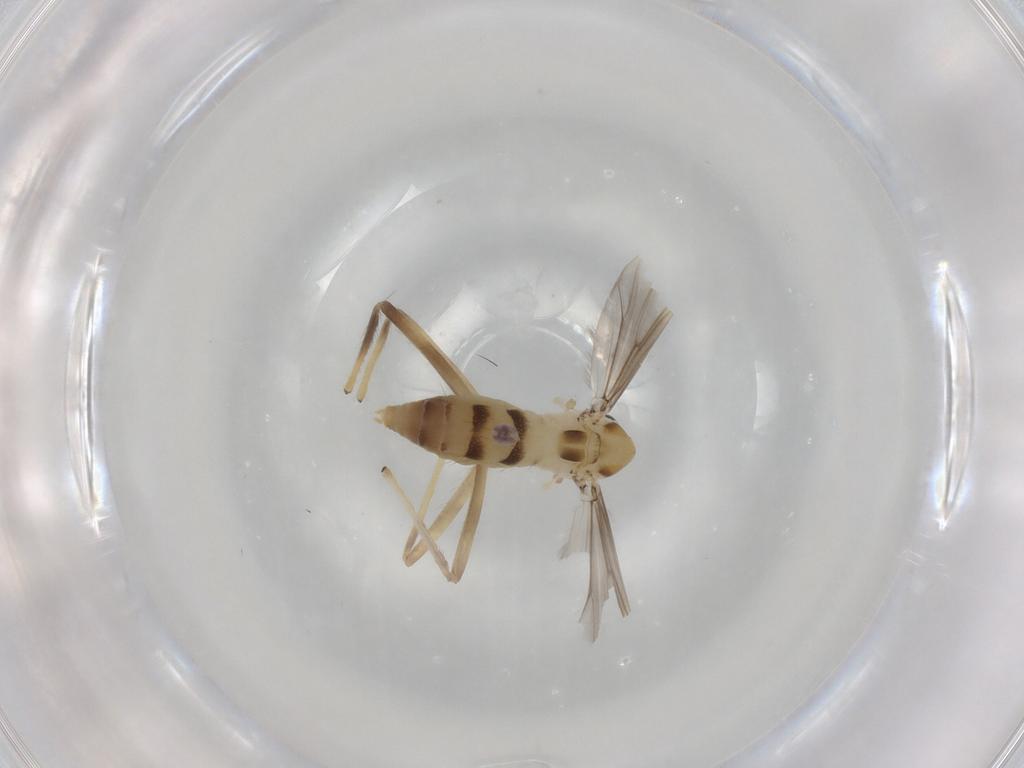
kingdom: Animalia
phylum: Arthropoda
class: Insecta
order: Diptera
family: Chironomidae
